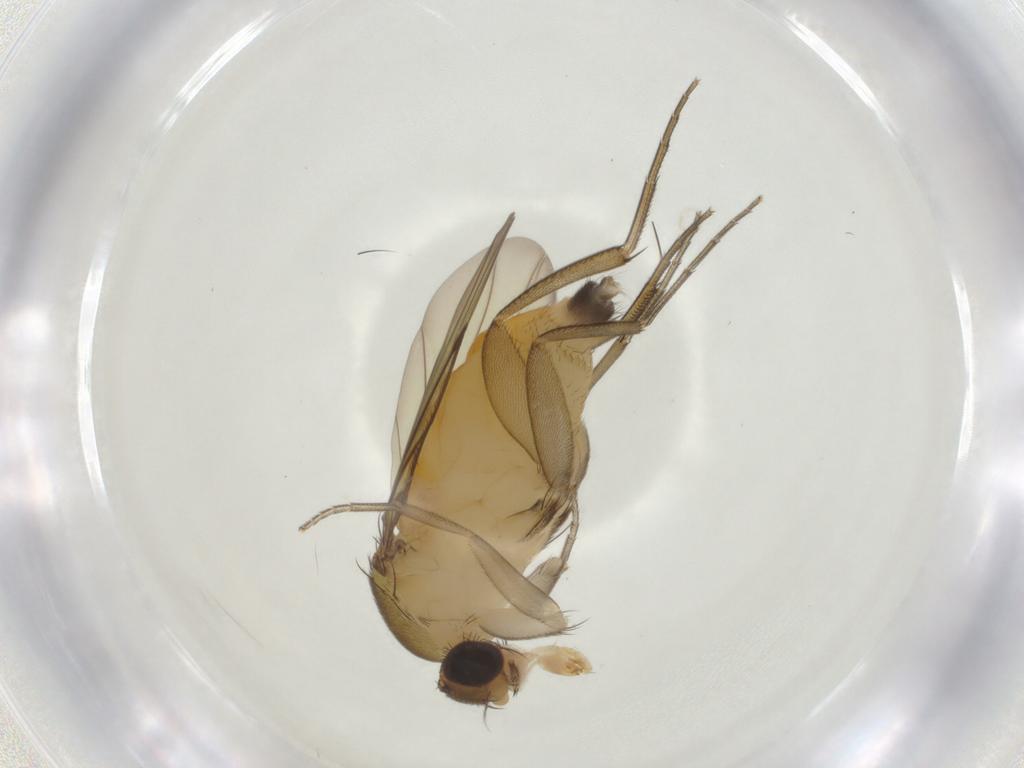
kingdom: Animalia
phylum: Arthropoda
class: Insecta
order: Diptera
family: Phoridae
